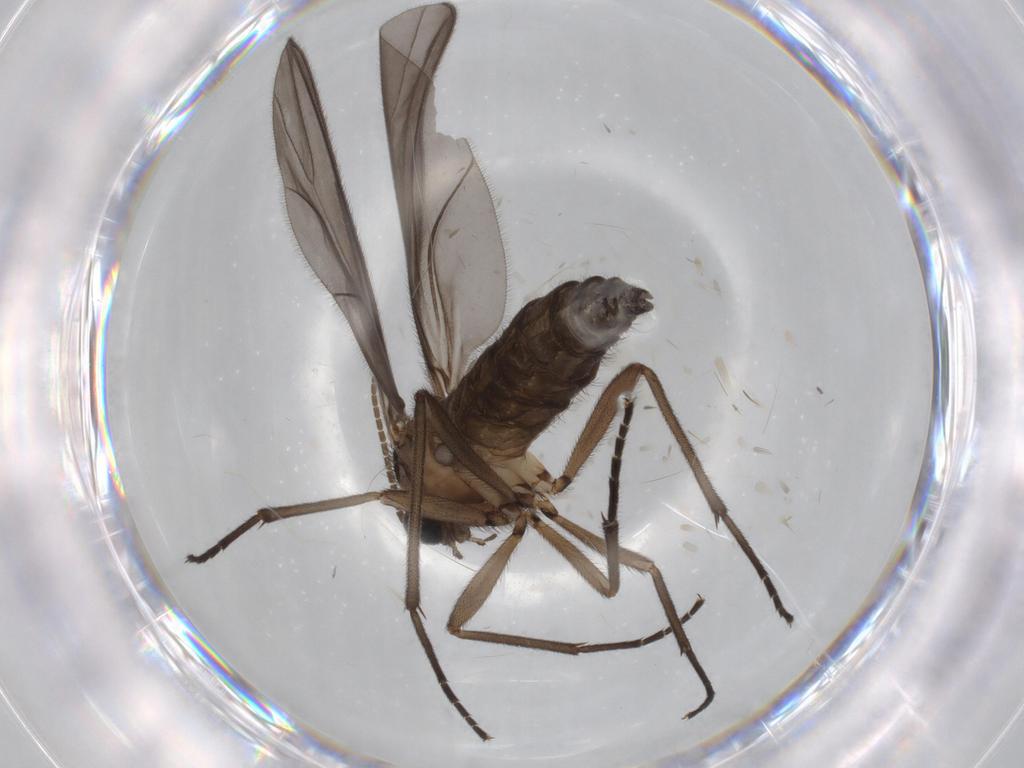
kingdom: Animalia
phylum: Arthropoda
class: Insecta
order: Diptera
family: Sciaridae
